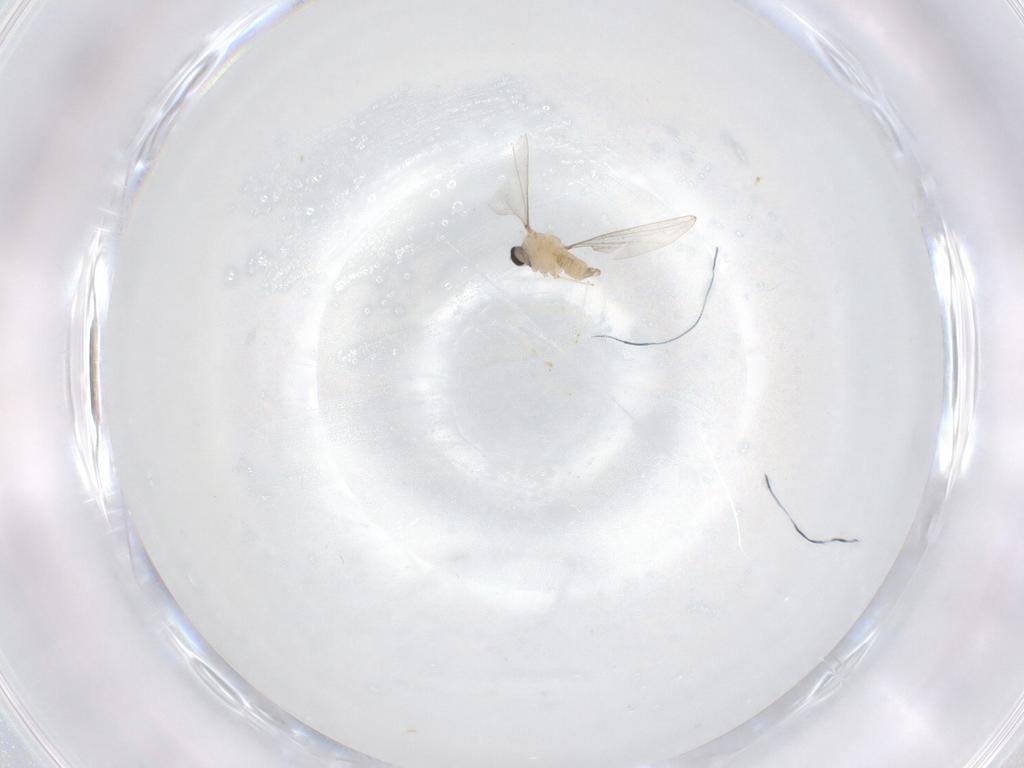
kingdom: Animalia
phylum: Arthropoda
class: Insecta
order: Diptera
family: Cecidomyiidae
